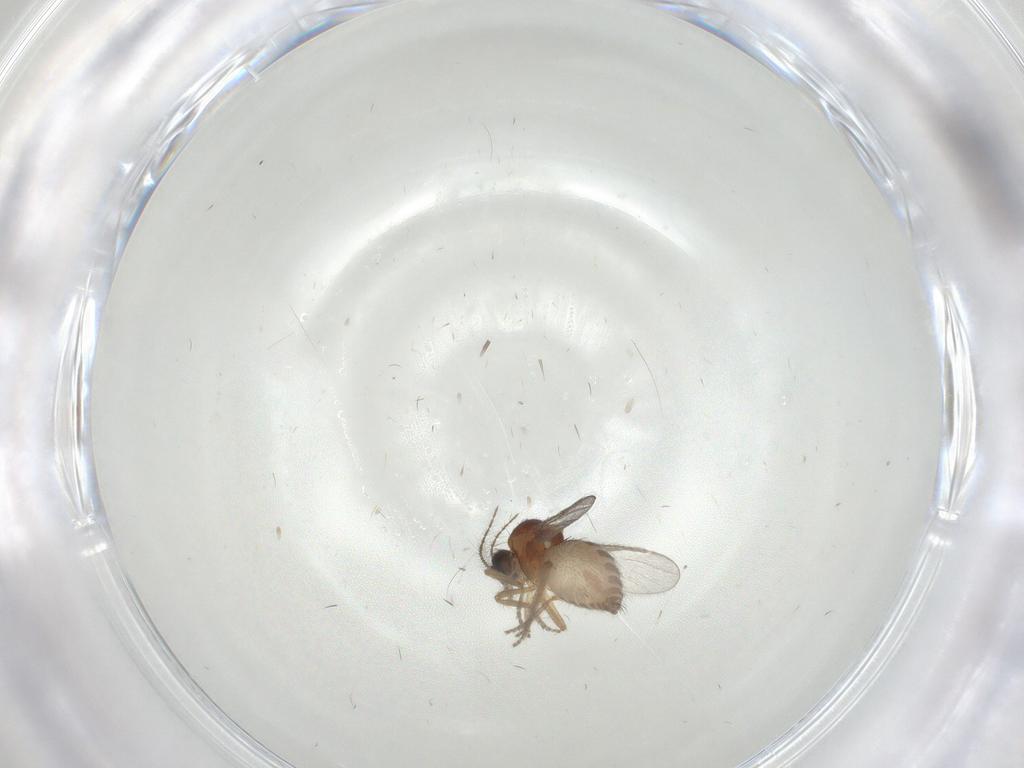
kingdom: Animalia
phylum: Arthropoda
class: Insecta
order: Diptera
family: Ceratopogonidae
